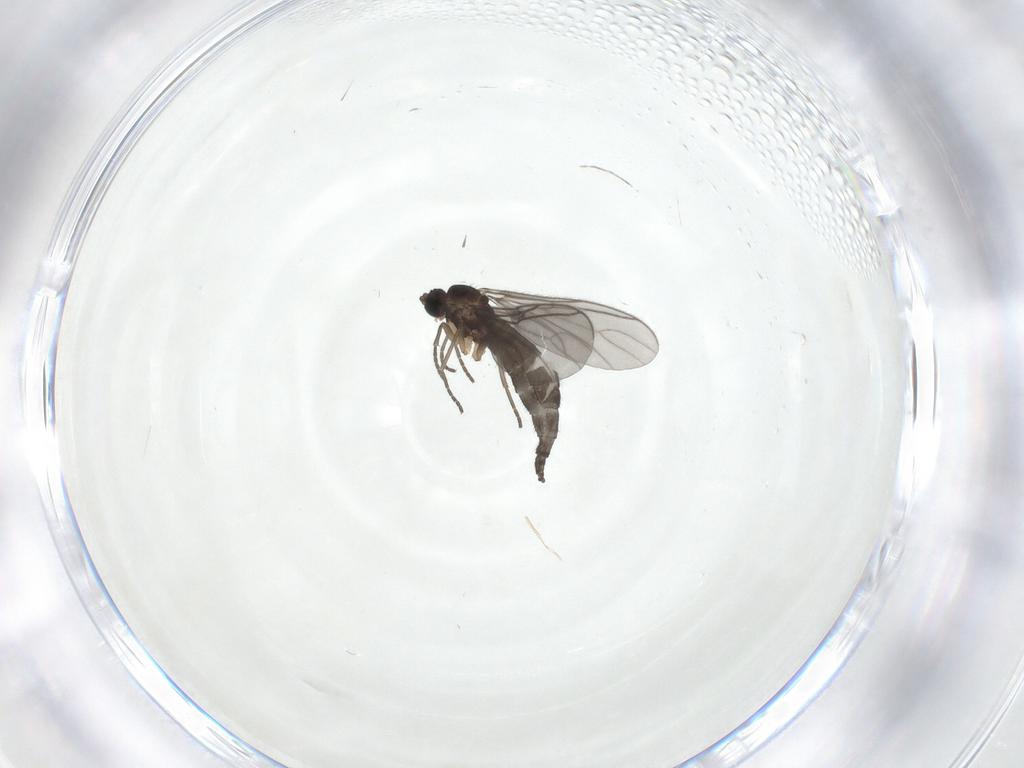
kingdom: Animalia
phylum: Arthropoda
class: Insecta
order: Diptera
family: Sciaridae
